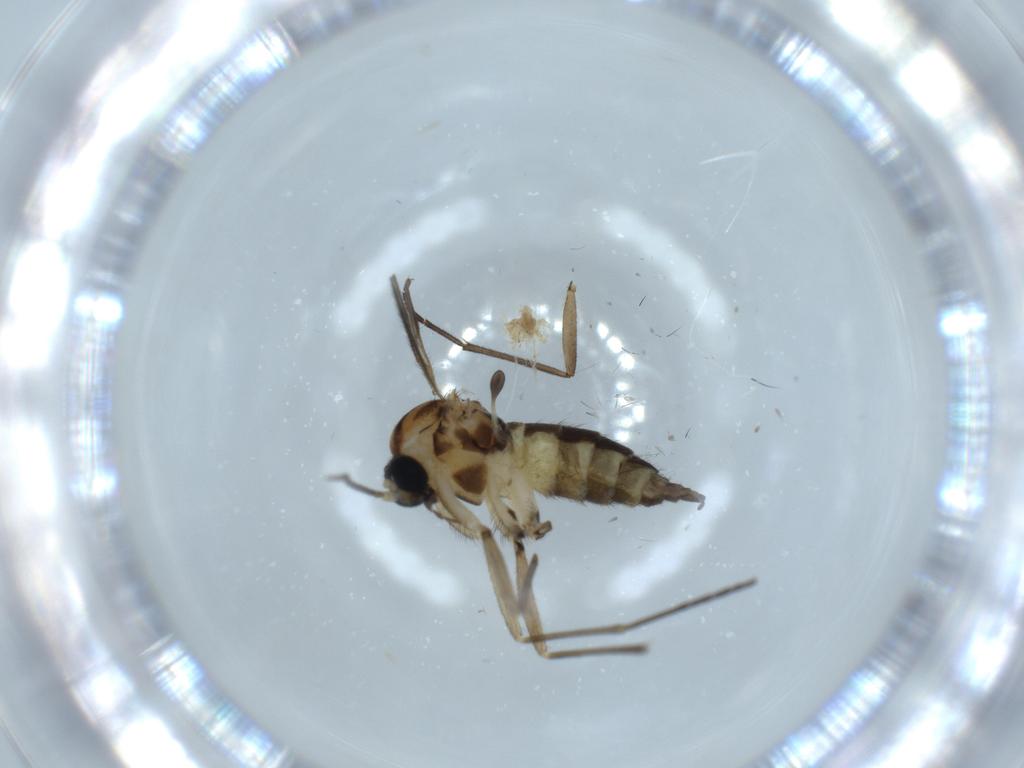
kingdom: Animalia
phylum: Arthropoda
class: Insecta
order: Diptera
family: Sciaridae
